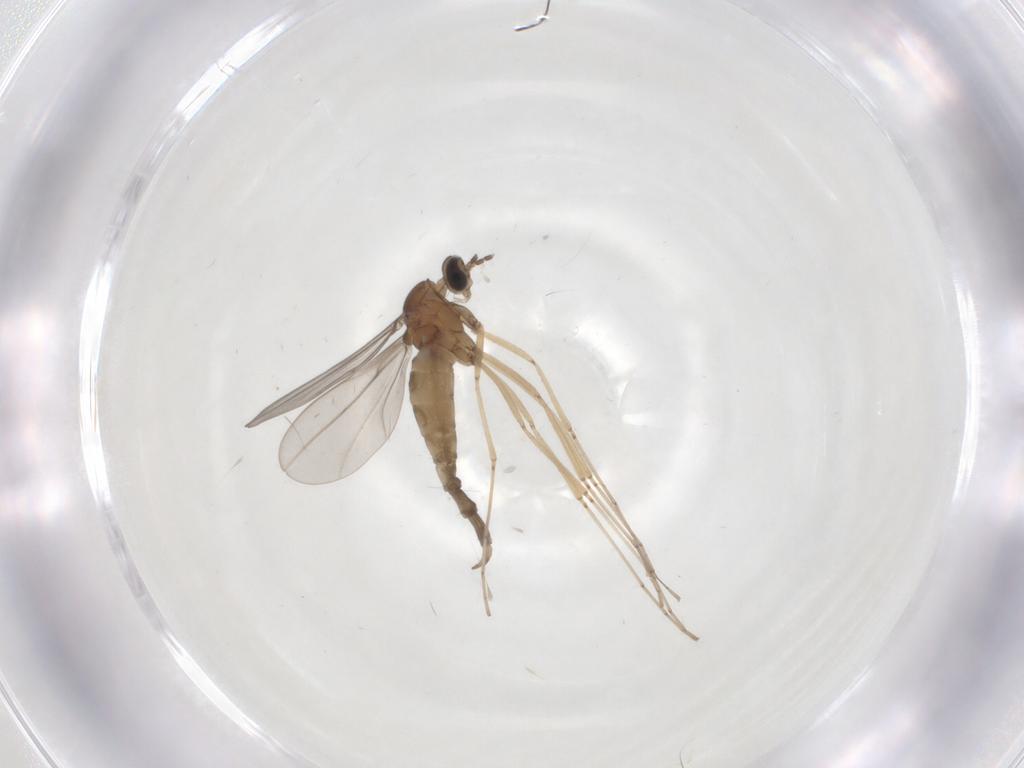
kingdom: Animalia
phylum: Arthropoda
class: Insecta
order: Diptera
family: Cecidomyiidae
